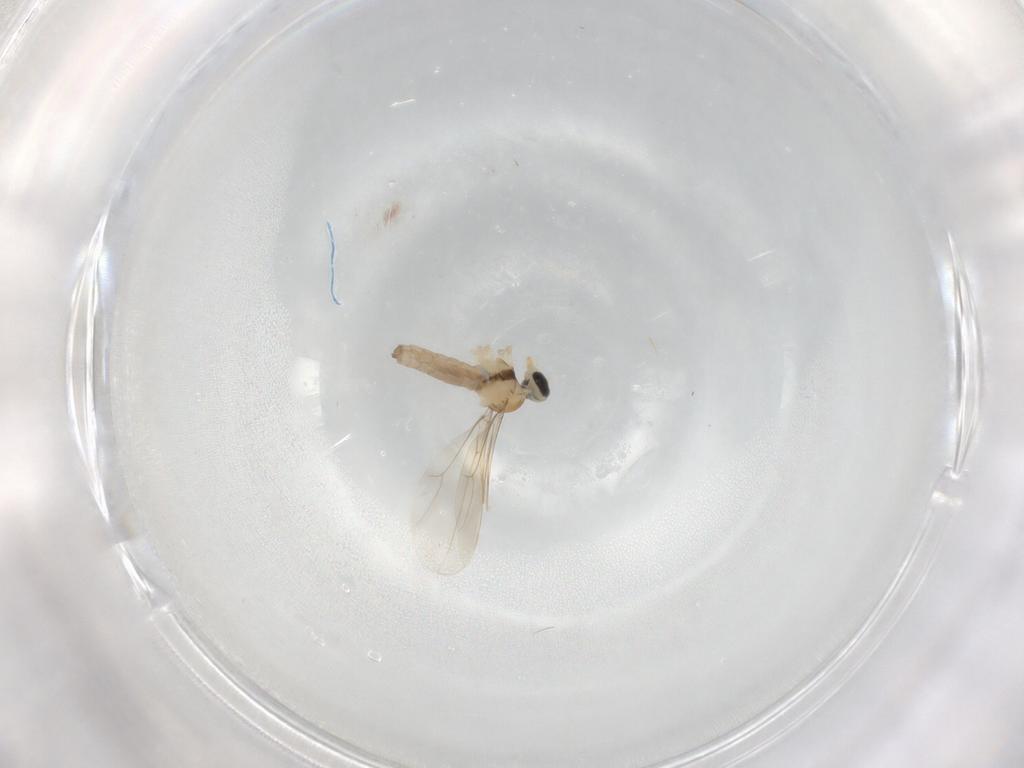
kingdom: Animalia
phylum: Arthropoda
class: Insecta
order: Diptera
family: Cecidomyiidae
